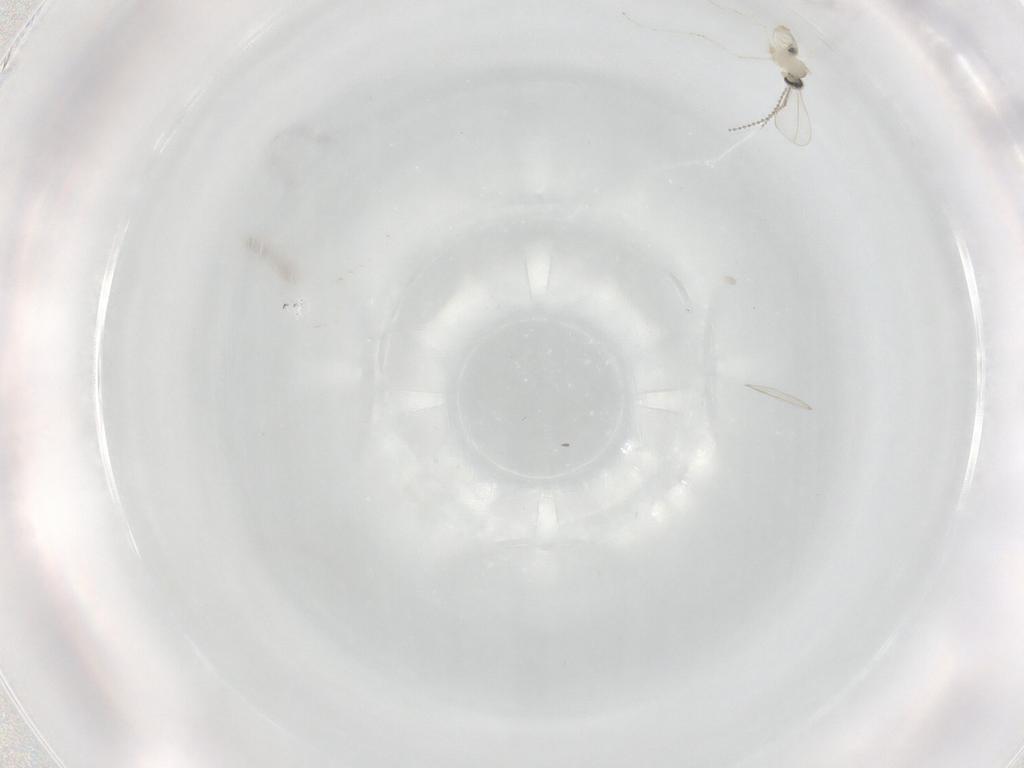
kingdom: Animalia
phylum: Arthropoda
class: Insecta
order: Diptera
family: Cecidomyiidae
